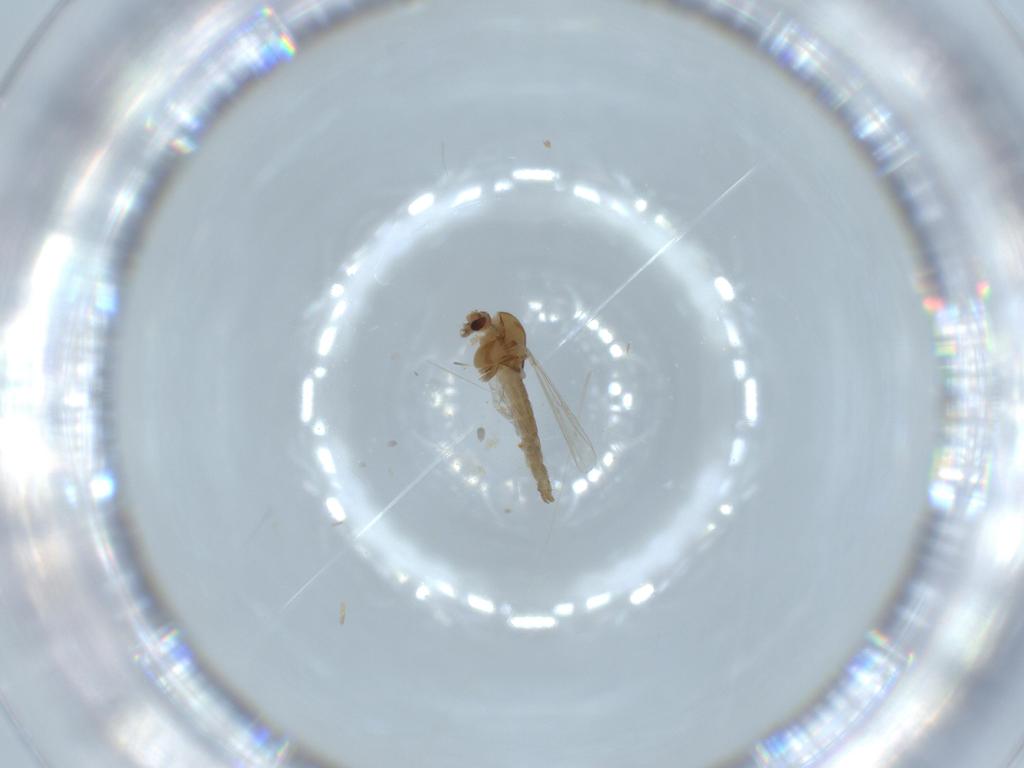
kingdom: Animalia
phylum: Arthropoda
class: Insecta
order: Diptera
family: Chironomidae
